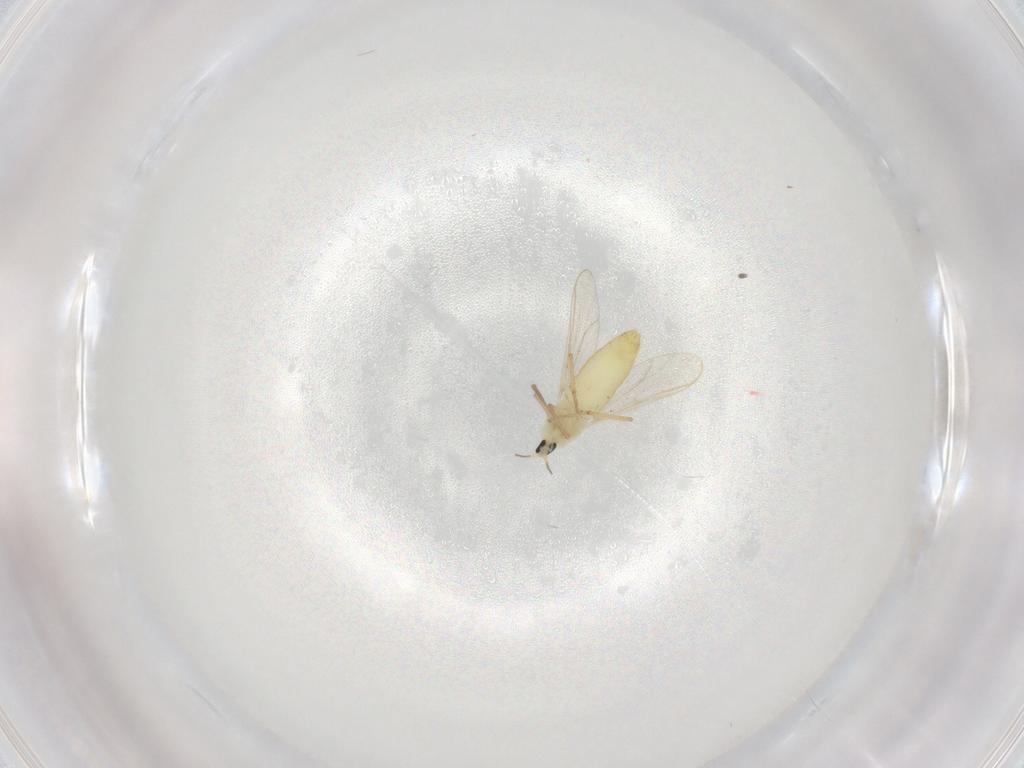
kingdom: Animalia
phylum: Arthropoda
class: Insecta
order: Diptera
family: Chironomidae
